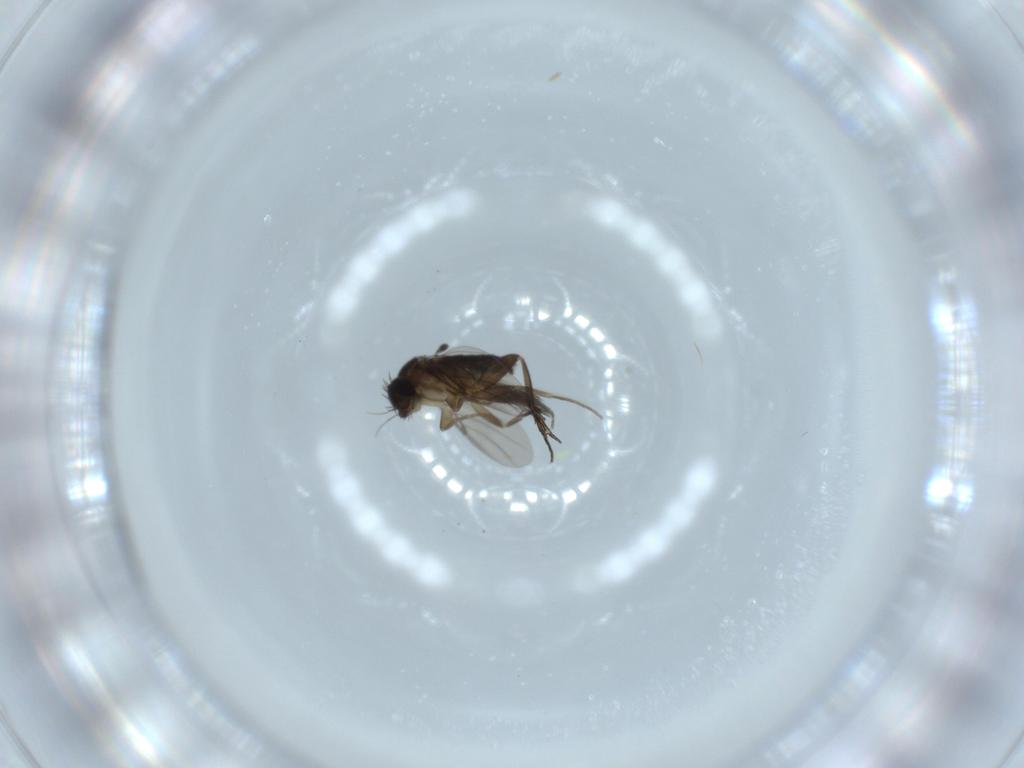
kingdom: Animalia
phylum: Arthropoda
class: Insecta
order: Diptera
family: Phoridae
